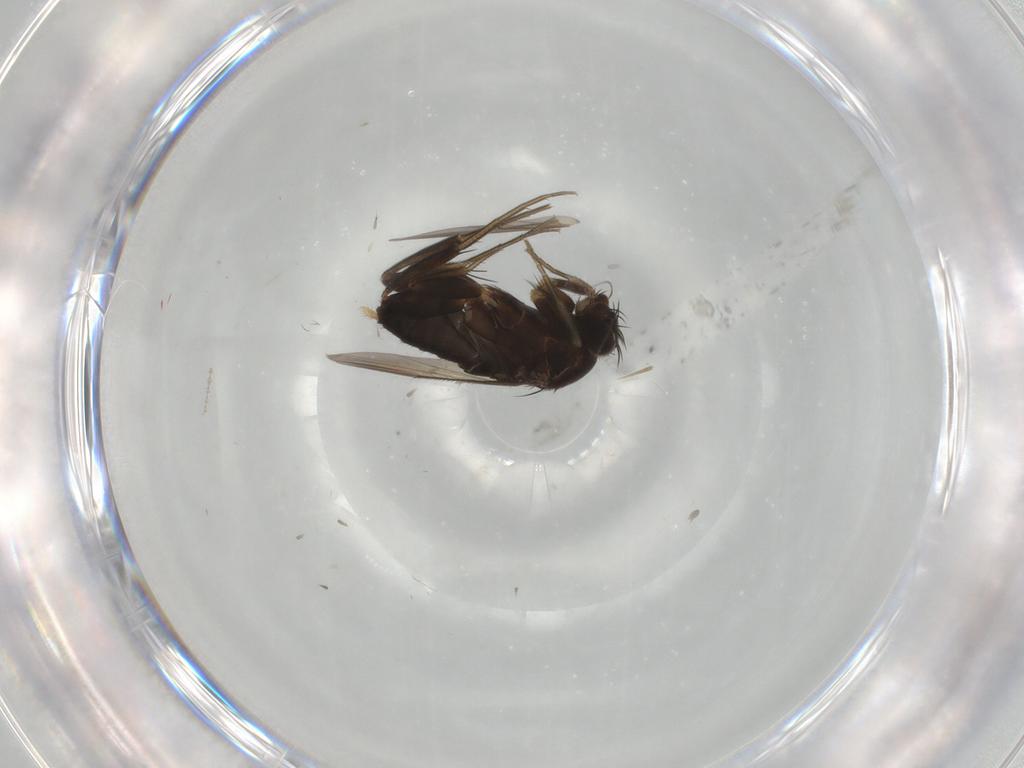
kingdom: Animalia
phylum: Arthropoda
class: Insecta
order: Diptera
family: Phoridae
